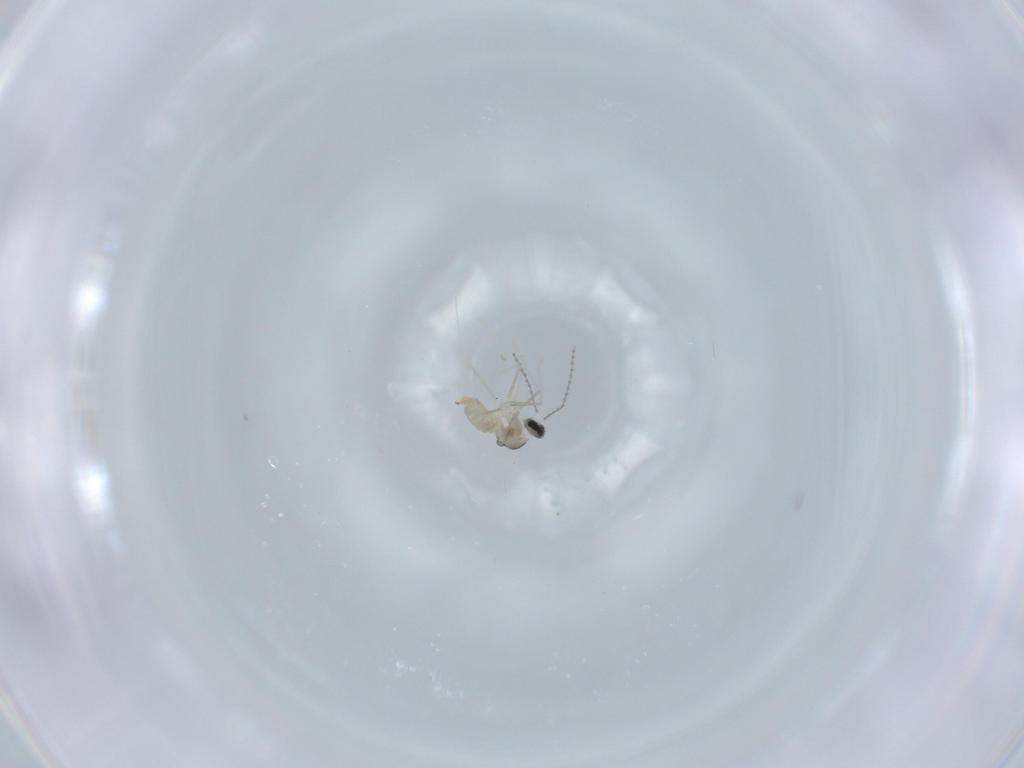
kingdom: Animalia
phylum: Arthropoda
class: Insecta
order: Diptera
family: Cecidomyiidae
